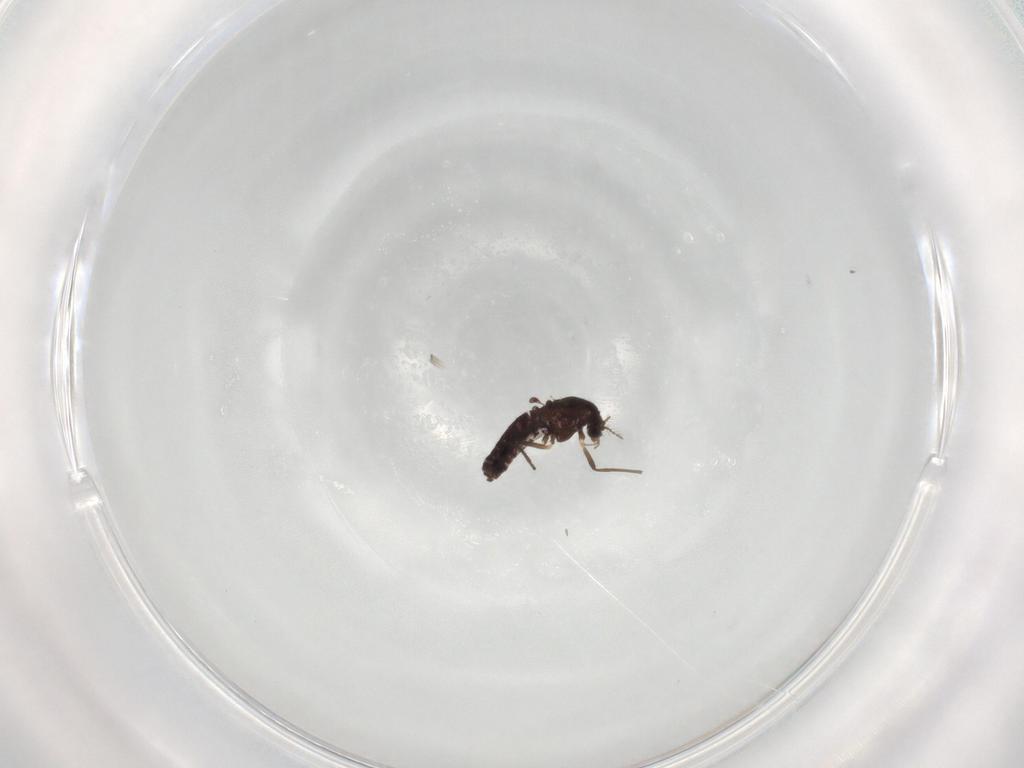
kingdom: Animalia
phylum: Arthropoda
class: Insecta
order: Diptera
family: Chironomidae
